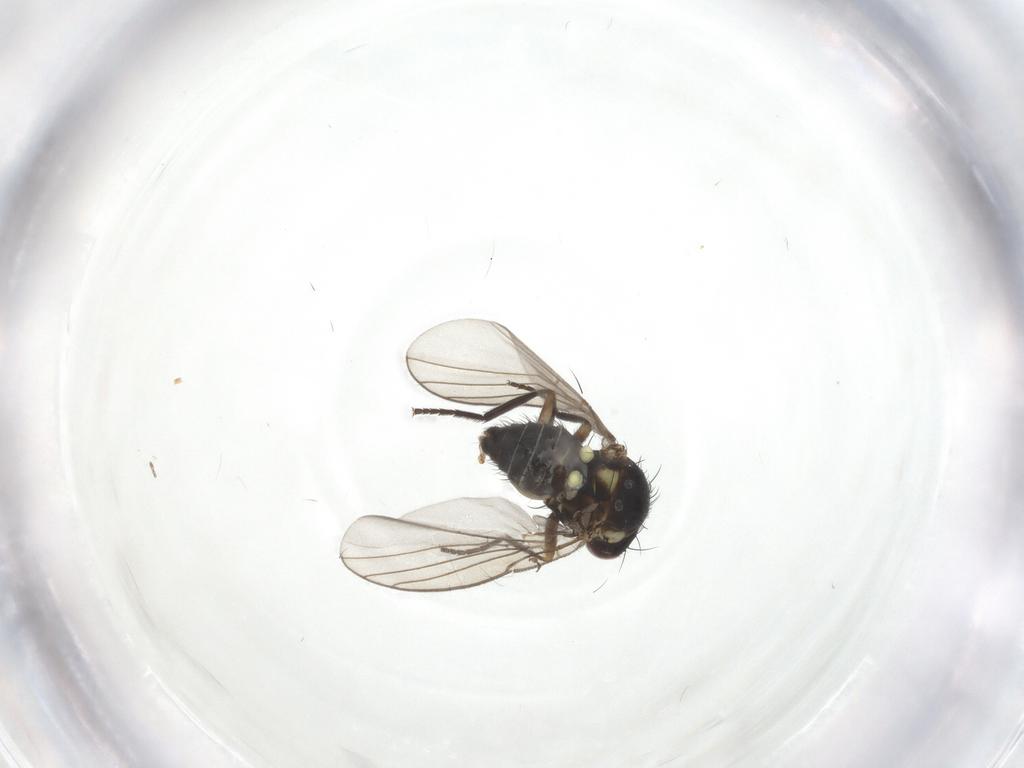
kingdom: Animalia
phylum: Arthropoda
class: Insecta
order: Diptera
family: Agromyzidae
